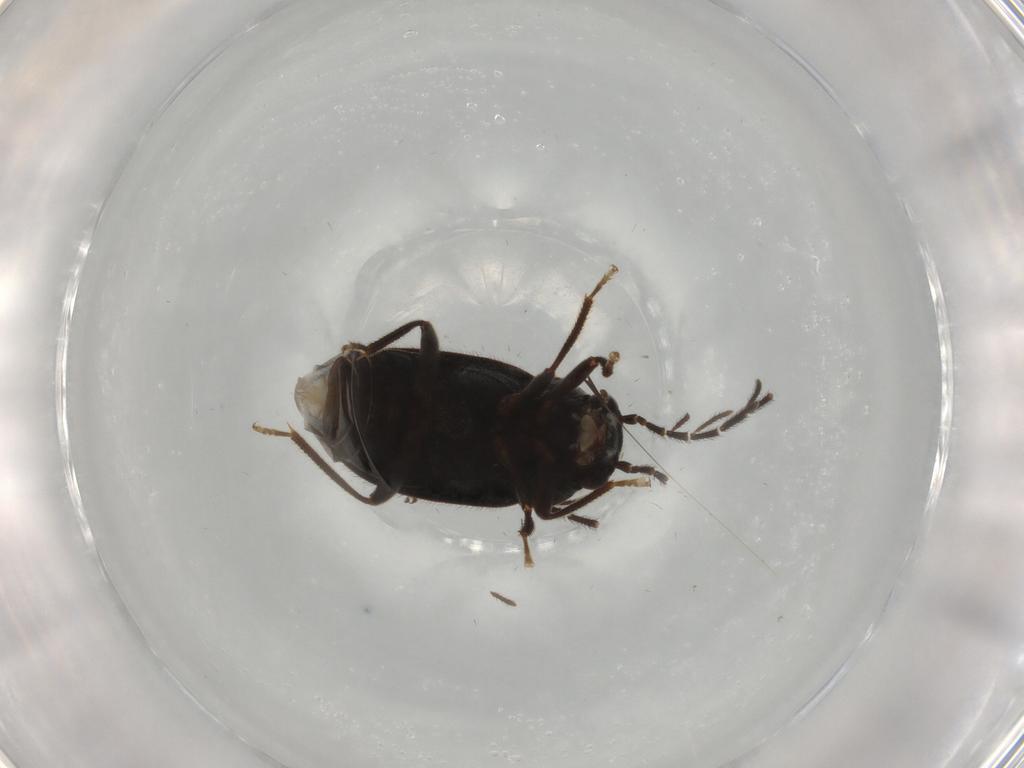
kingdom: Animalia
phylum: Arthropoda
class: Insecta
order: Coleoptera
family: Ptilodactylidae
